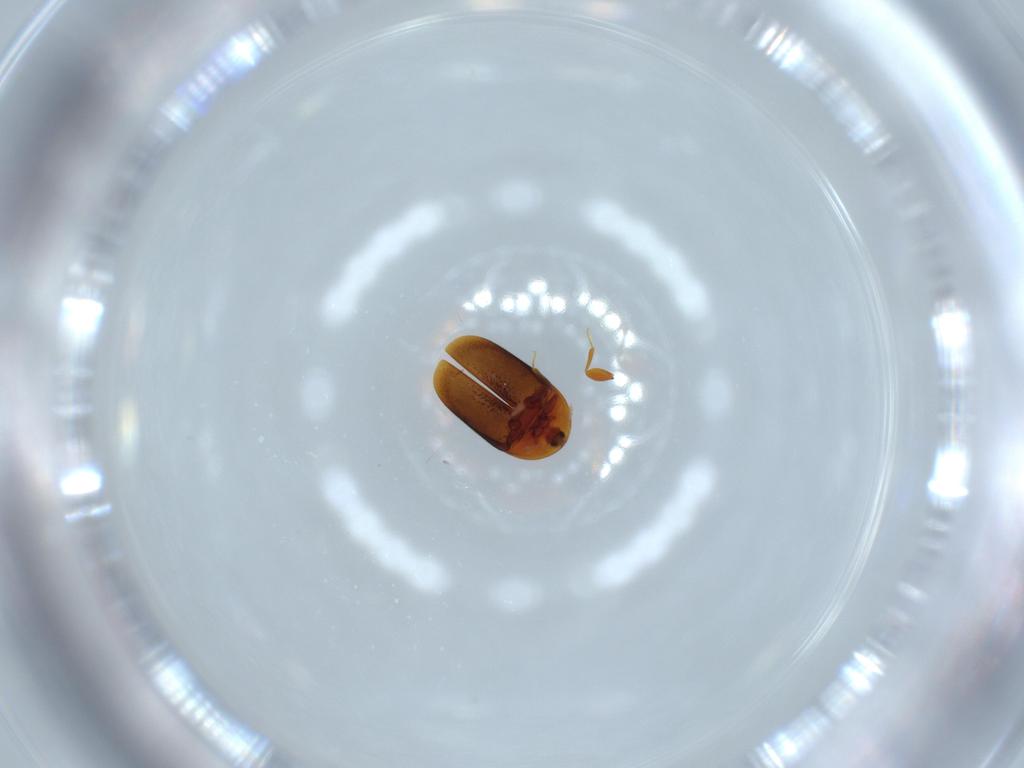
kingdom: Animalia
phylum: Arthropoda
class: Insecta
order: Coleoptera
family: Corylophidae
